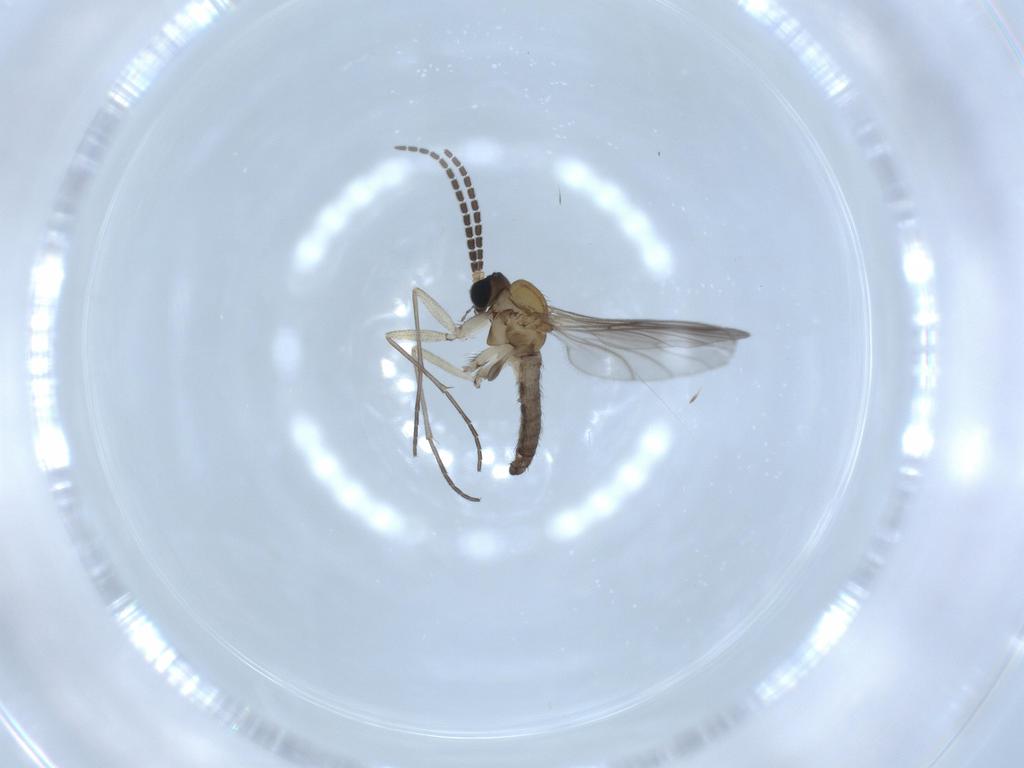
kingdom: Animalia
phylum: Arthropoda
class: Insecta
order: Diptera
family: Sciaridae
